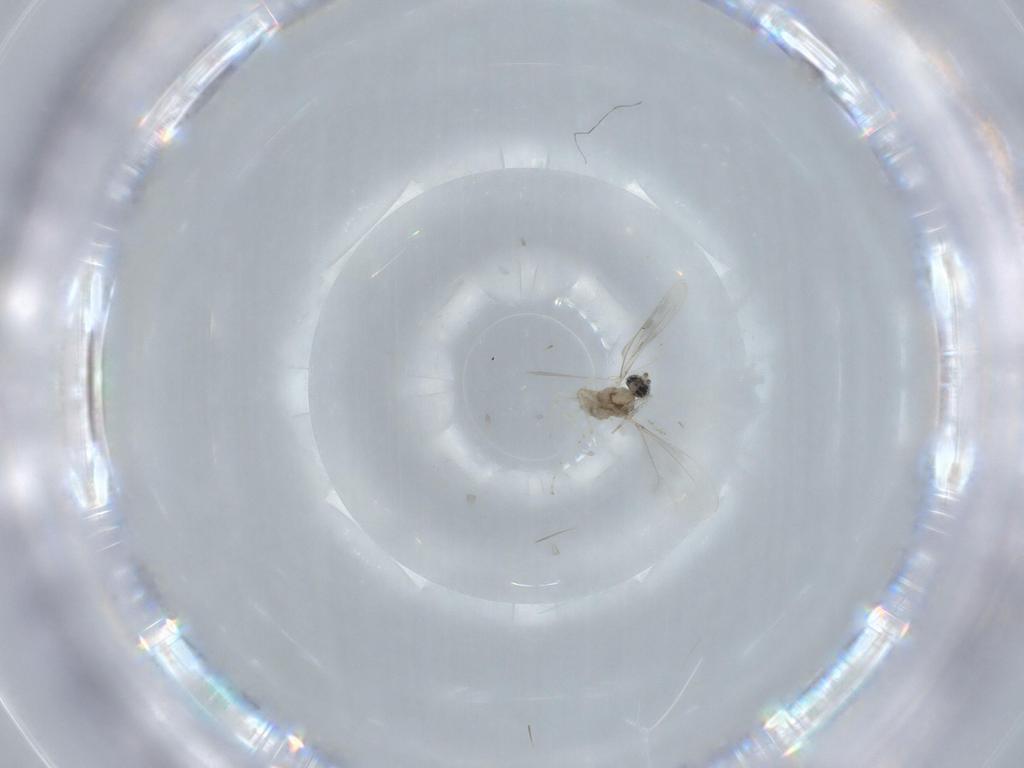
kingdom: Animalia
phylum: Arthropoda
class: Insecta
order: Diptera
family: Cecidomyiidae
